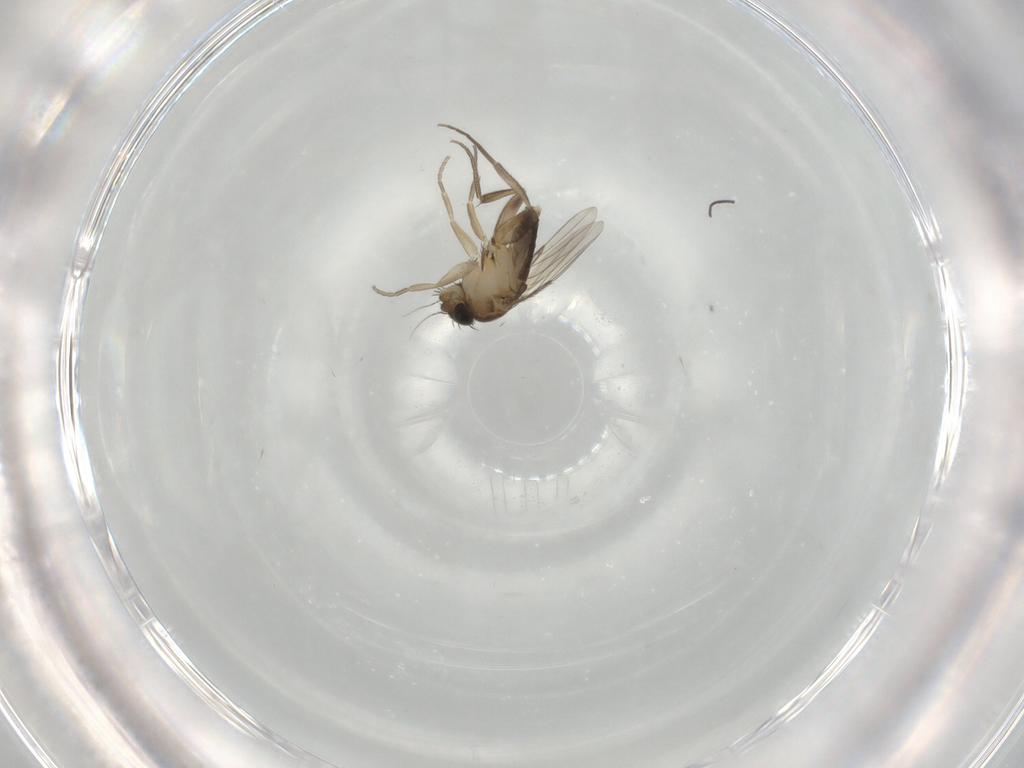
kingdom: Animalia
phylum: Arthropoda
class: Insecta
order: Diptera
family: Phoridae
